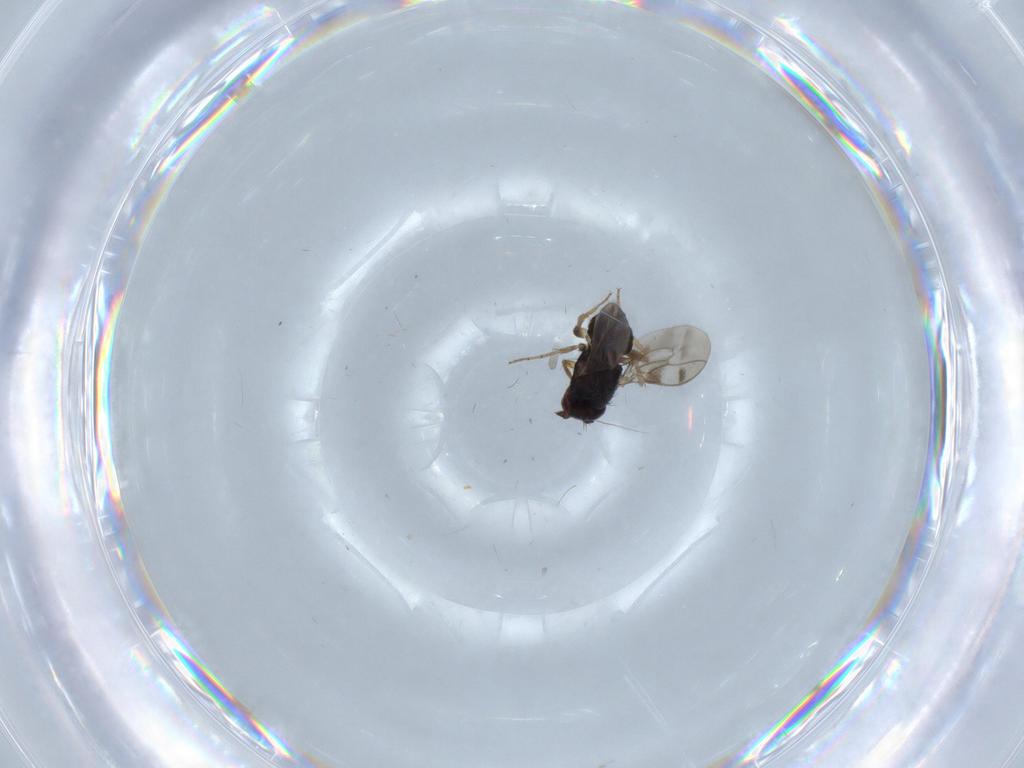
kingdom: Animalia
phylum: Arthropoda
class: Insecta
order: Diptera
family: Sphaeroceridae
